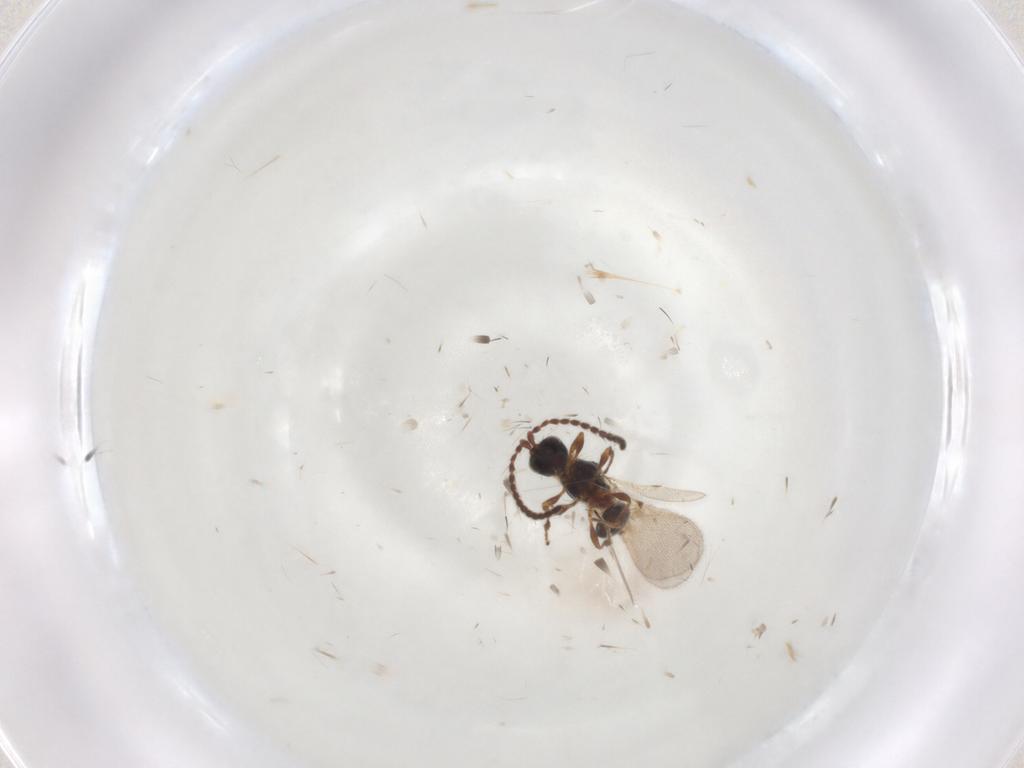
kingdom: Animalia
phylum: Arthropoda
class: Insecta
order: Hymenoptera
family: Diapriidae
